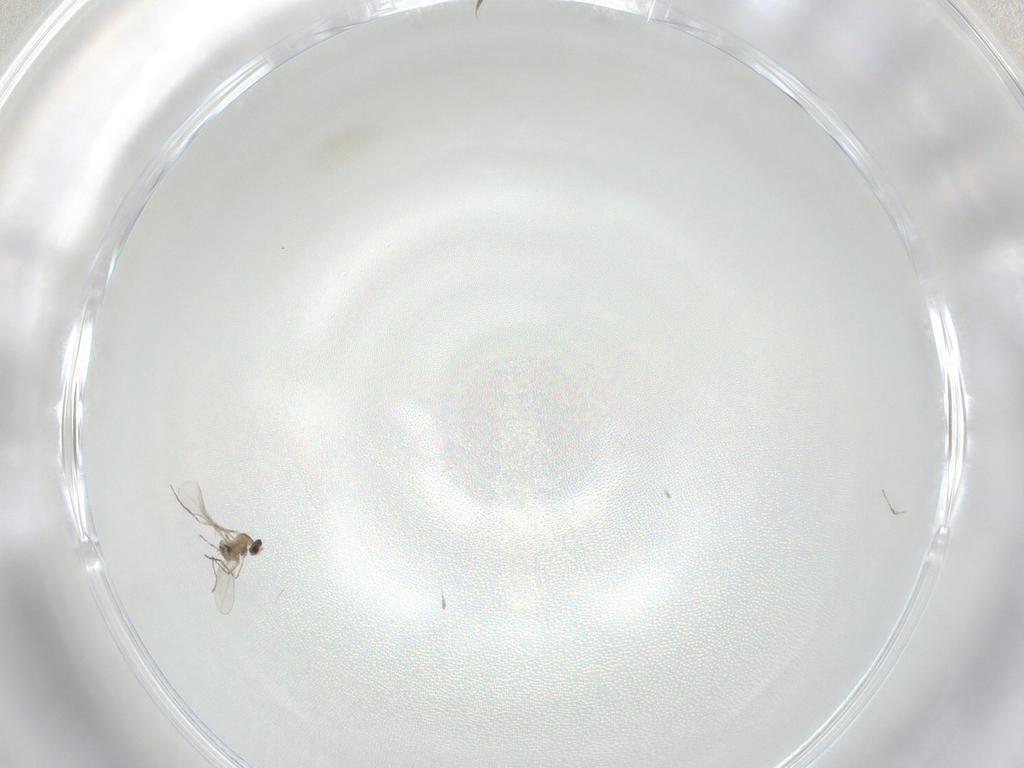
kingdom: Animalia
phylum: Arthropoda
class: Insecta
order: Diptera
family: Cecidomyiidae
